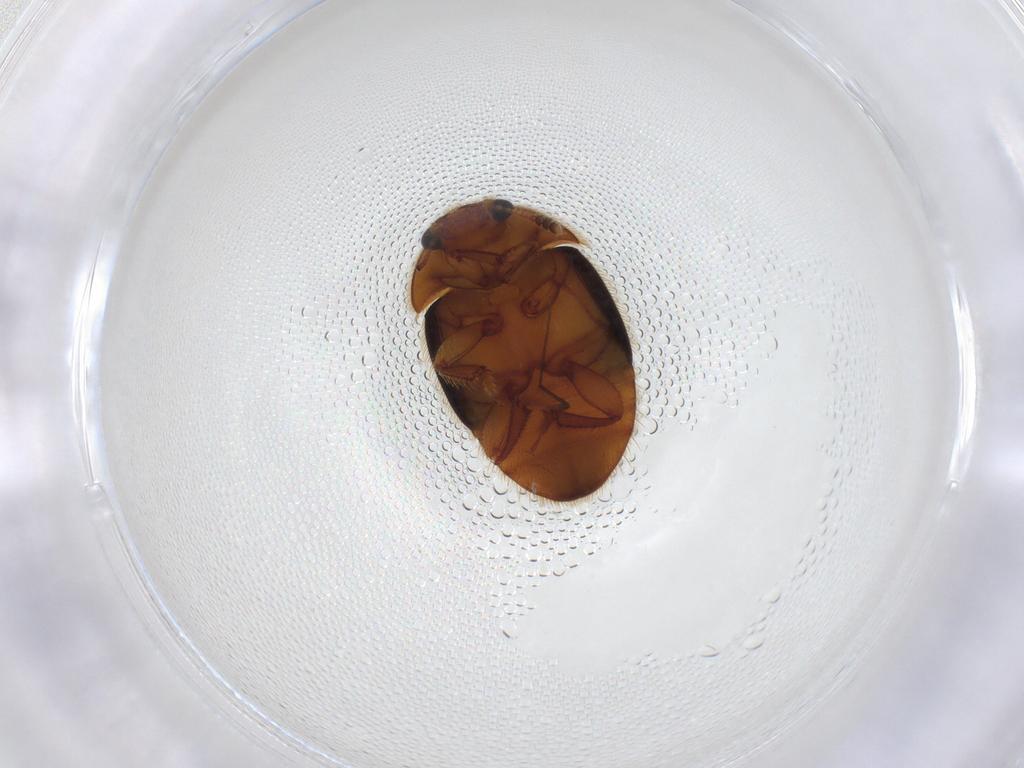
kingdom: Animalia
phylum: Arthropoda
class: Insecta
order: Coleoptera
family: Nitidulidae
